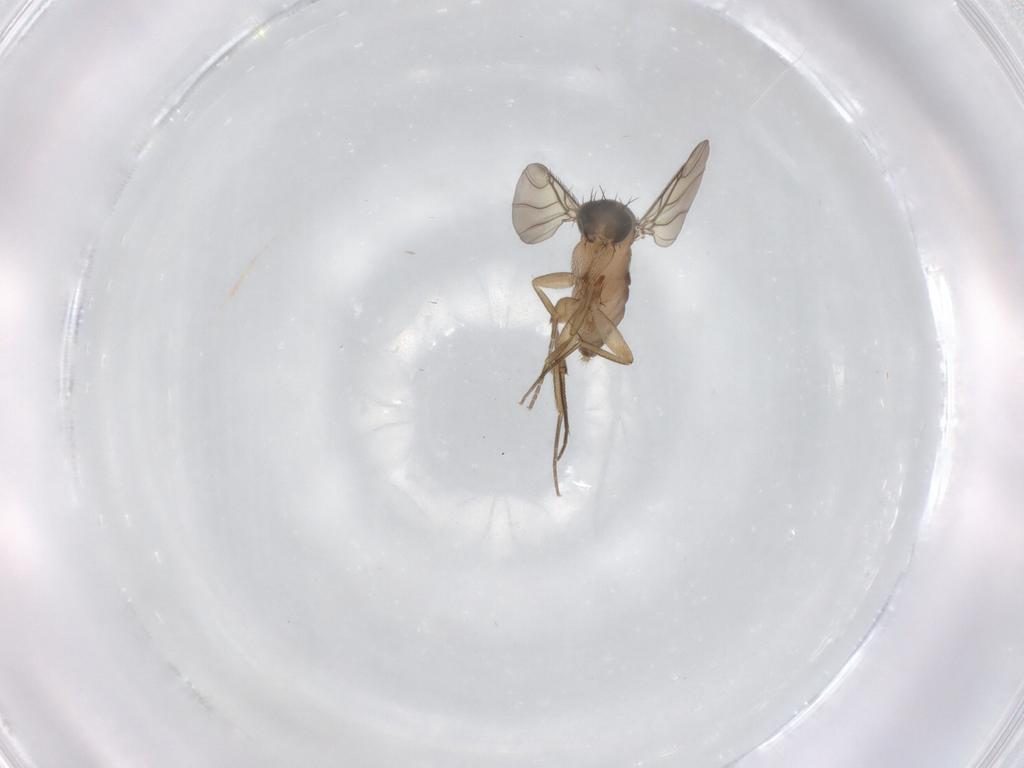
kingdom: Animalia
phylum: Arthropoda
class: Insecta
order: Diptera
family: Phoridae
